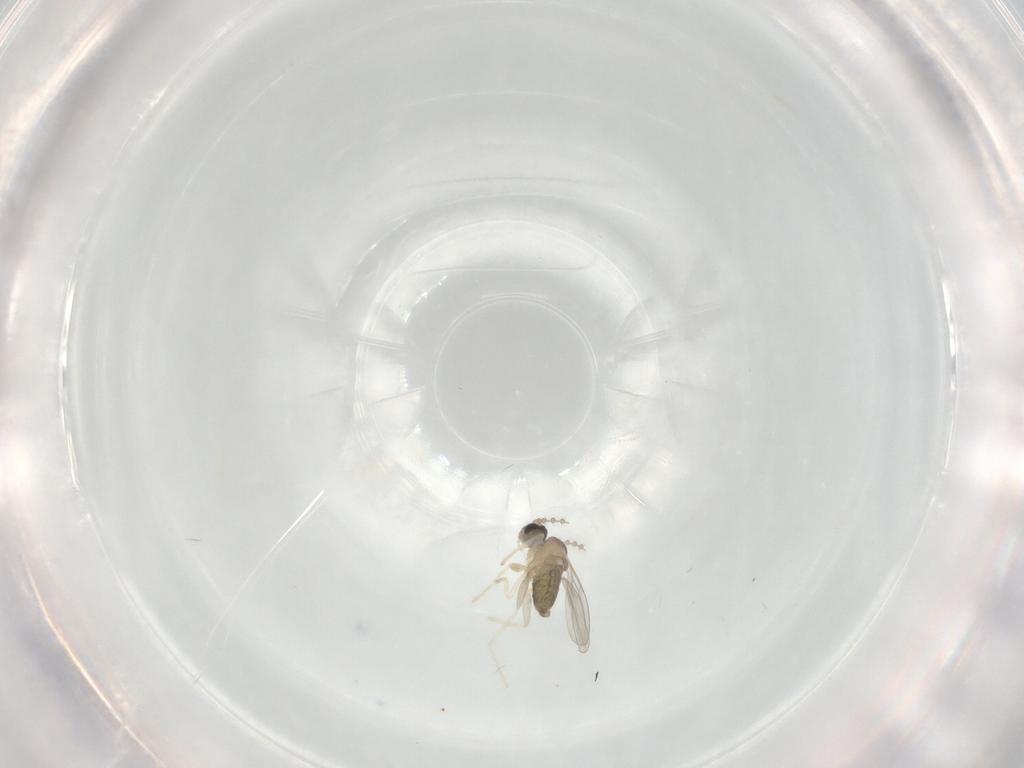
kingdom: Animalia
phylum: Arthropoda
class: Insecta
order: Diptera
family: Cecidomyiidae
